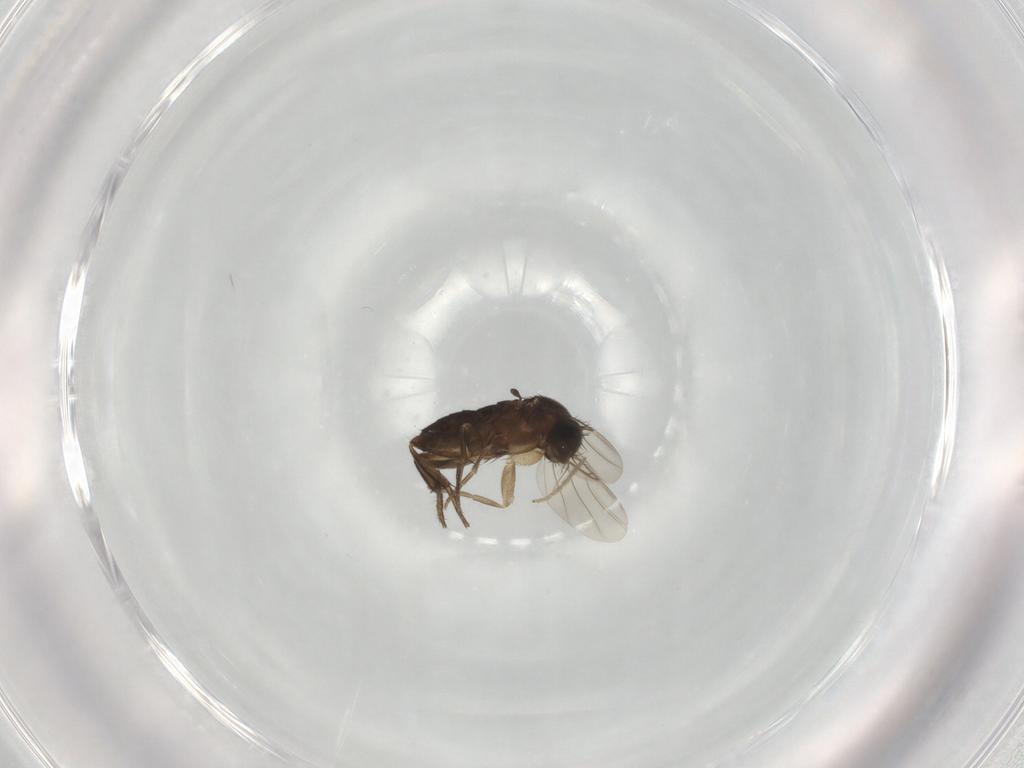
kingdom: Animalia
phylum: Arthropoda
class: Insecta
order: Diptera
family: Phoridae
